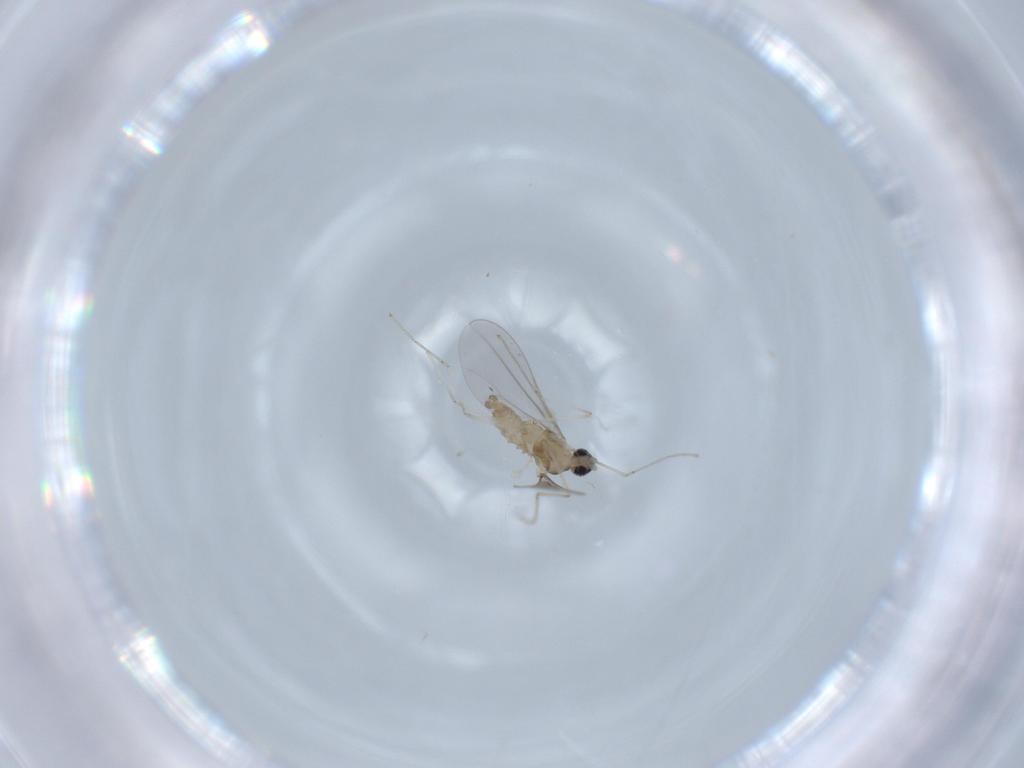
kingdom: Animalia
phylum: Arthropoda
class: Insecta
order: Diptera
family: Cecidomyiidae
